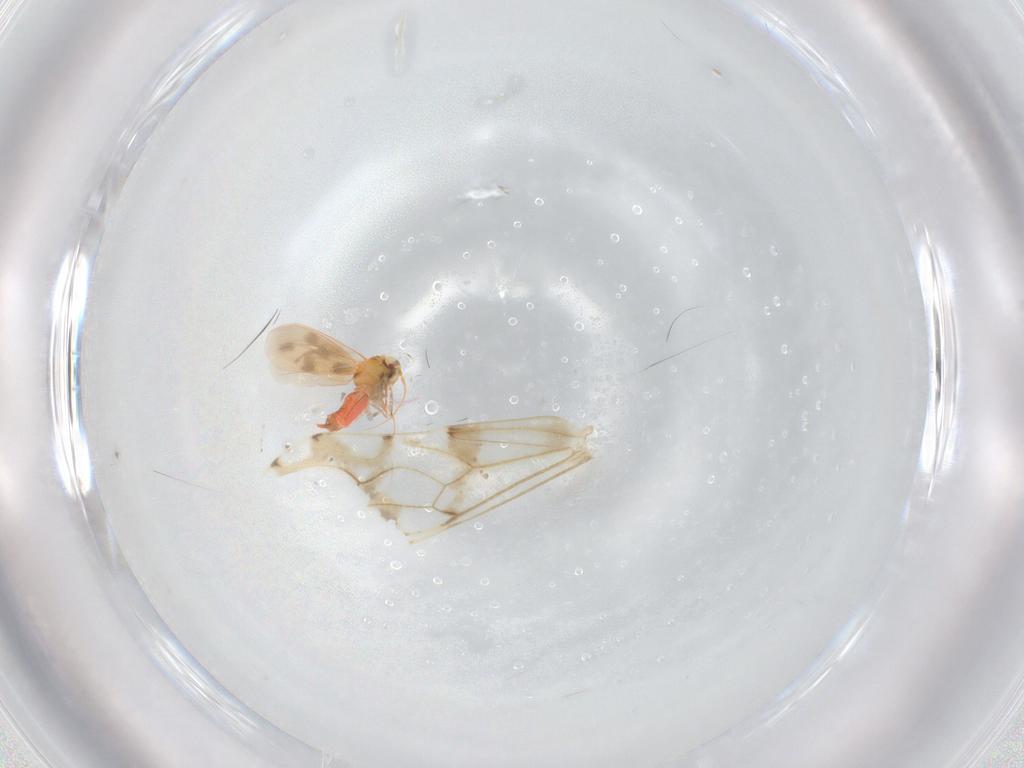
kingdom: Animalia
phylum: Arthropoda
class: Insecta
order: Hemiptera
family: Aleyrodidae
